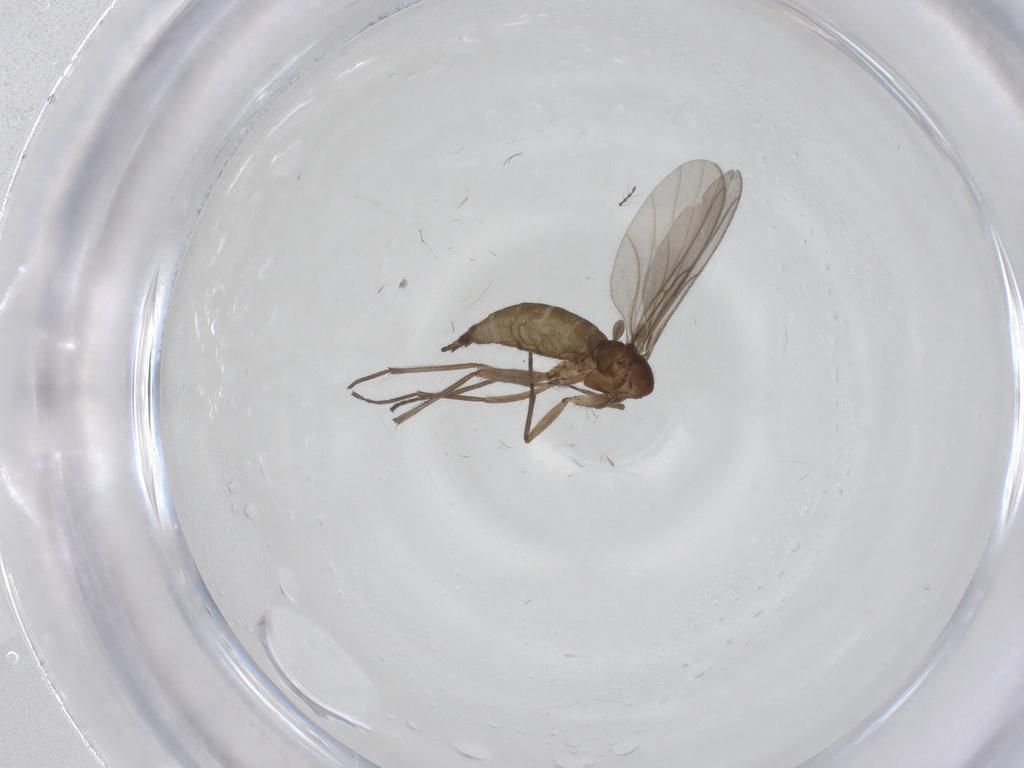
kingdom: Animalia
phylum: Arthropoda
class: Insecta
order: Diptera
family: Sciaridae
